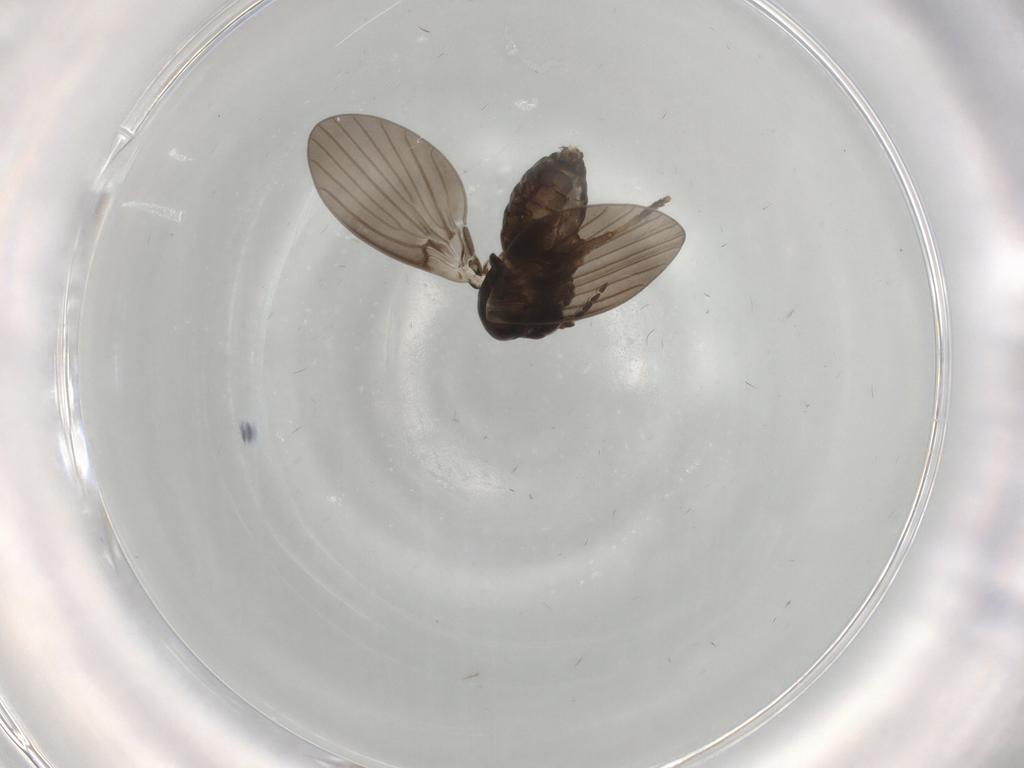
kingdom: Animalia
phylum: Arthropoda
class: Insecta
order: Diptera
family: Psychodidae
